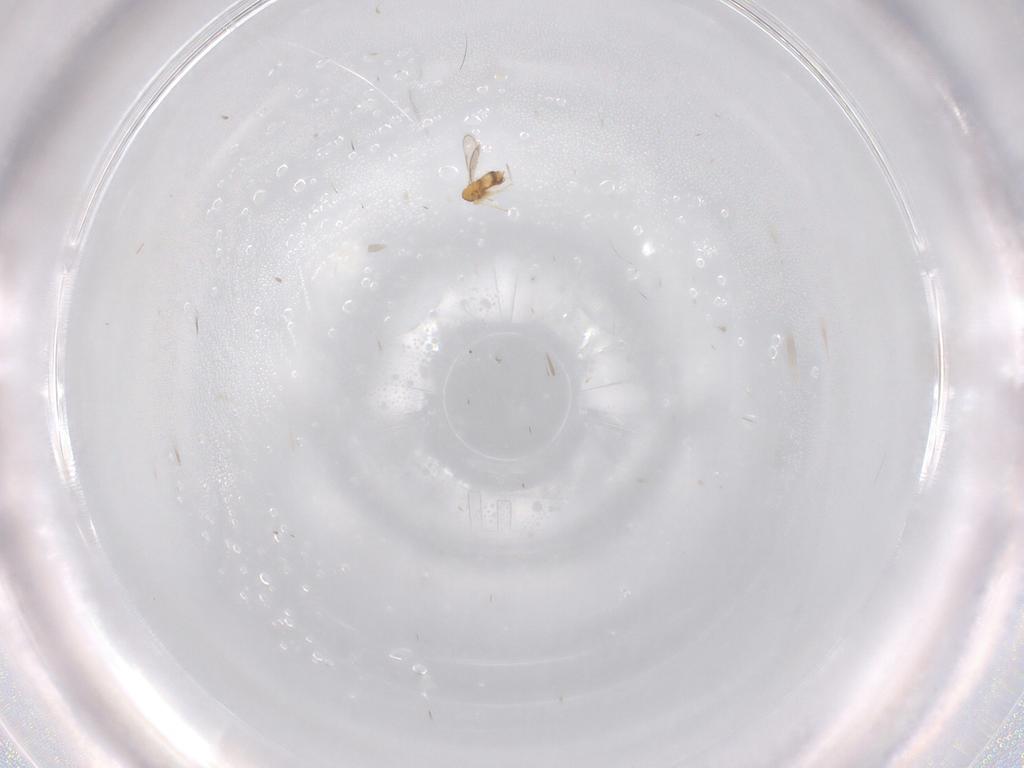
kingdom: Animalia
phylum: Arthropoda
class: Insecta
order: Hymenoptera
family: Formicidae
